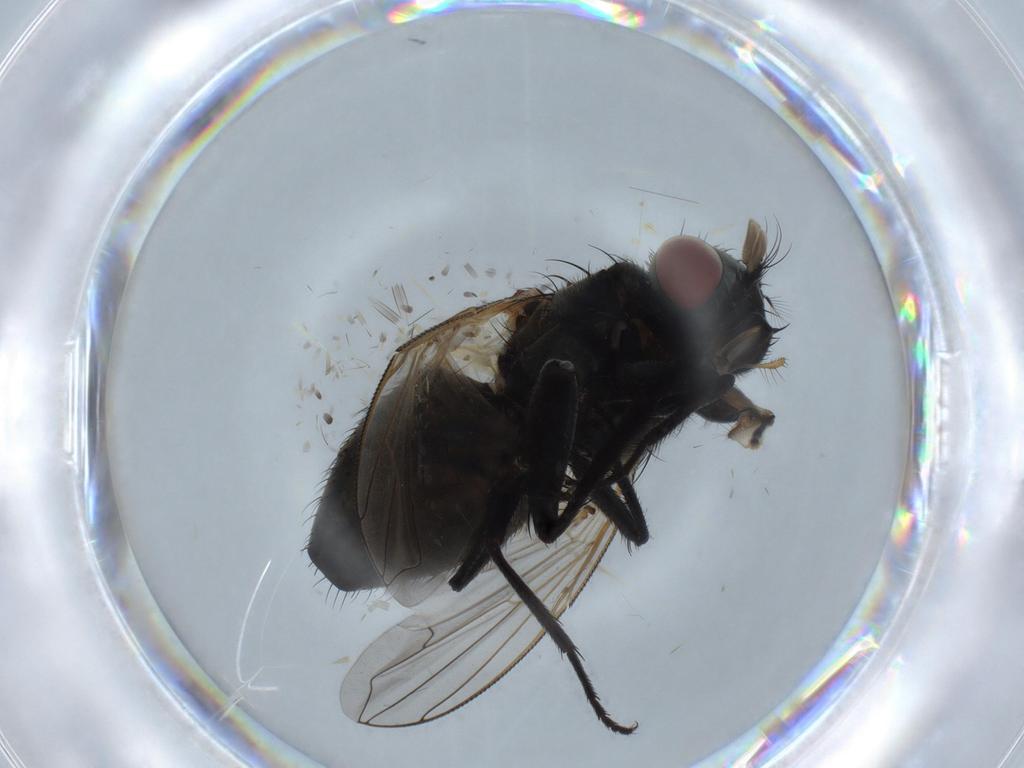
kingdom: Animalia
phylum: Arthropoda
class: Insecta
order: Diptera
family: Cecidomyiidae
